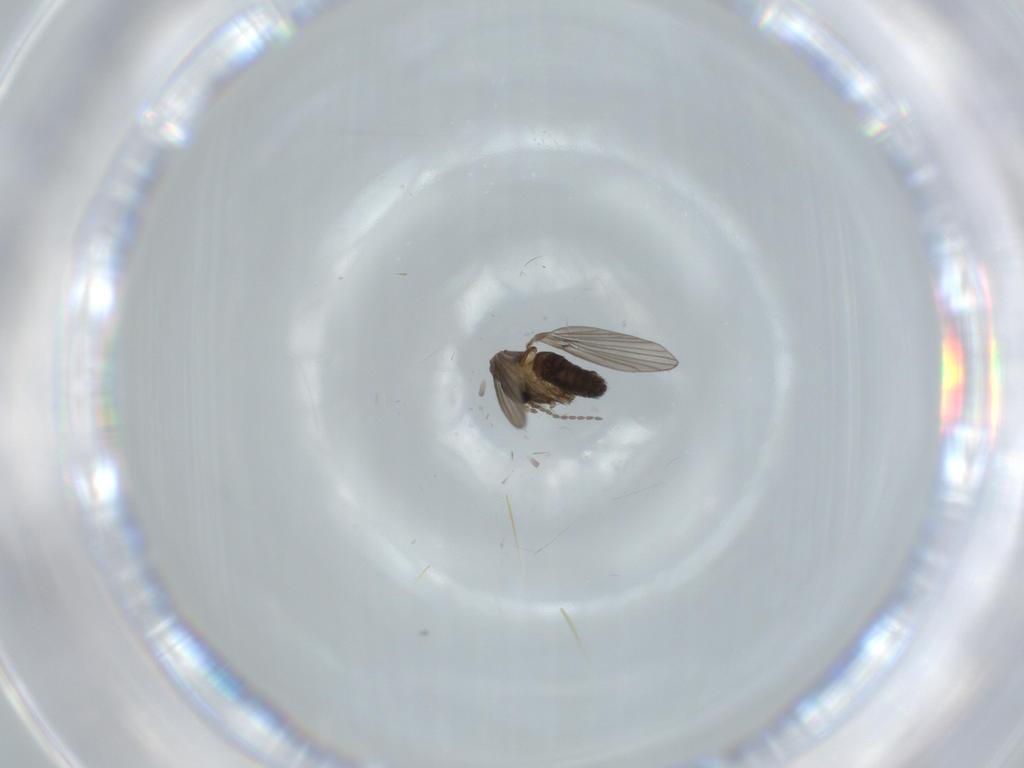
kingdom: Animalia
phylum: Arthropoda
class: Insecta
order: Diptera
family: Psychodidae
